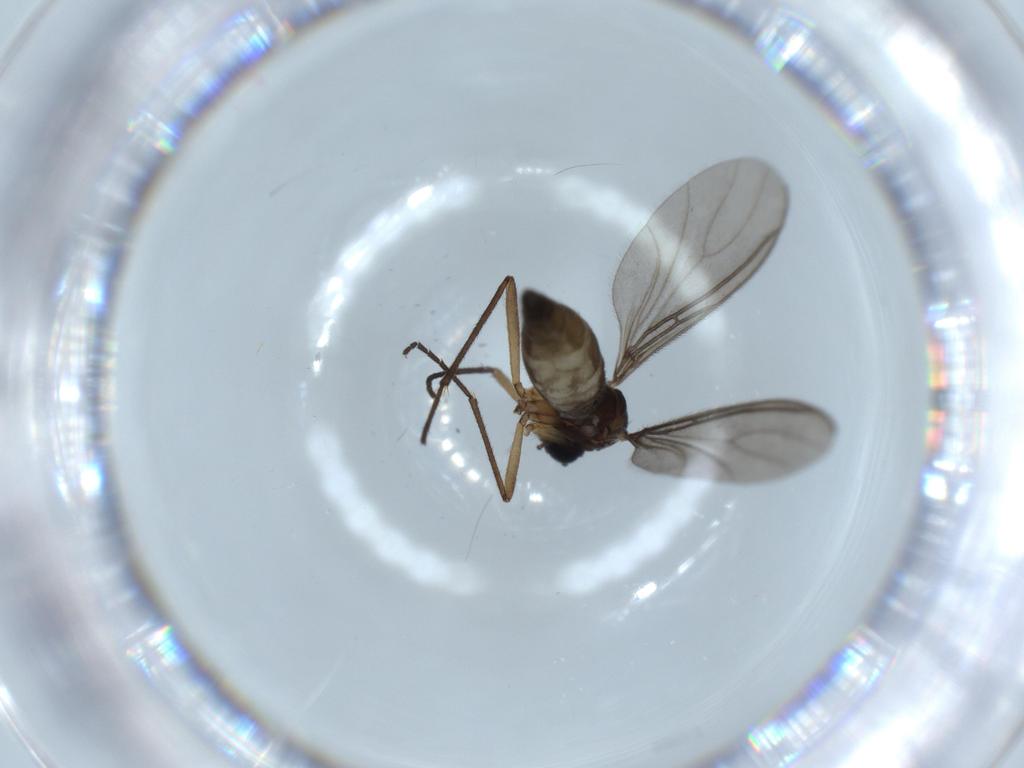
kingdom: Animalia
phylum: Arthropoda
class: Insecta
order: Diptera
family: Sciaridae
